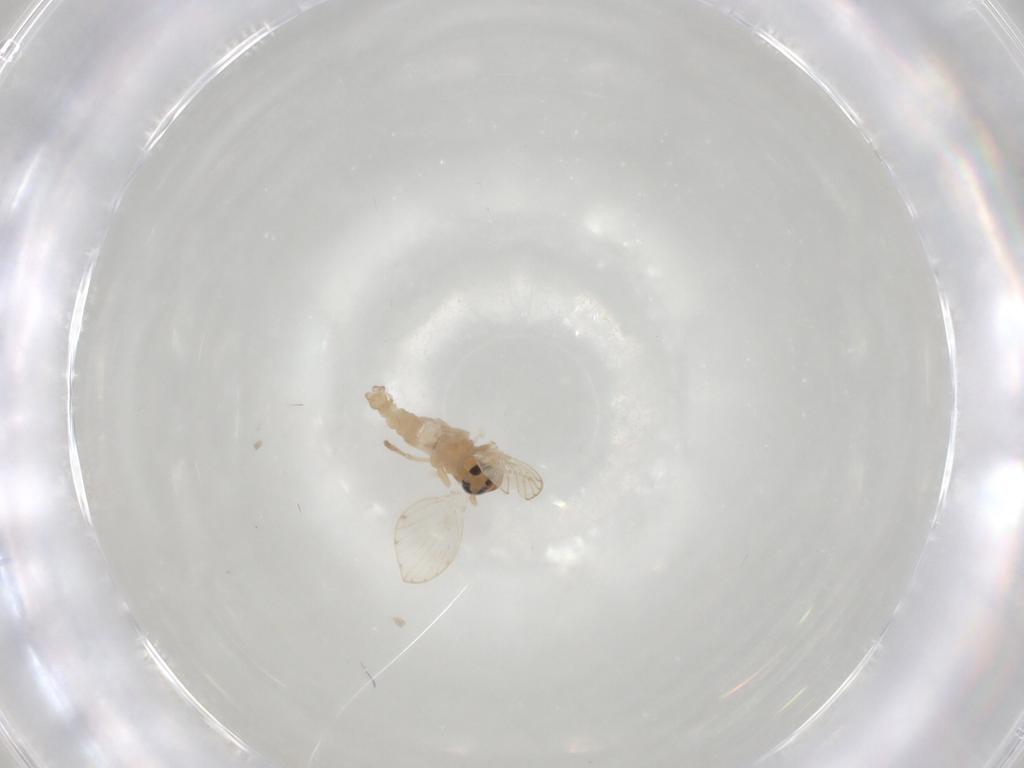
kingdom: Animalia
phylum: Arthropoda
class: Insecta
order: Diptera
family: Psychodidae
